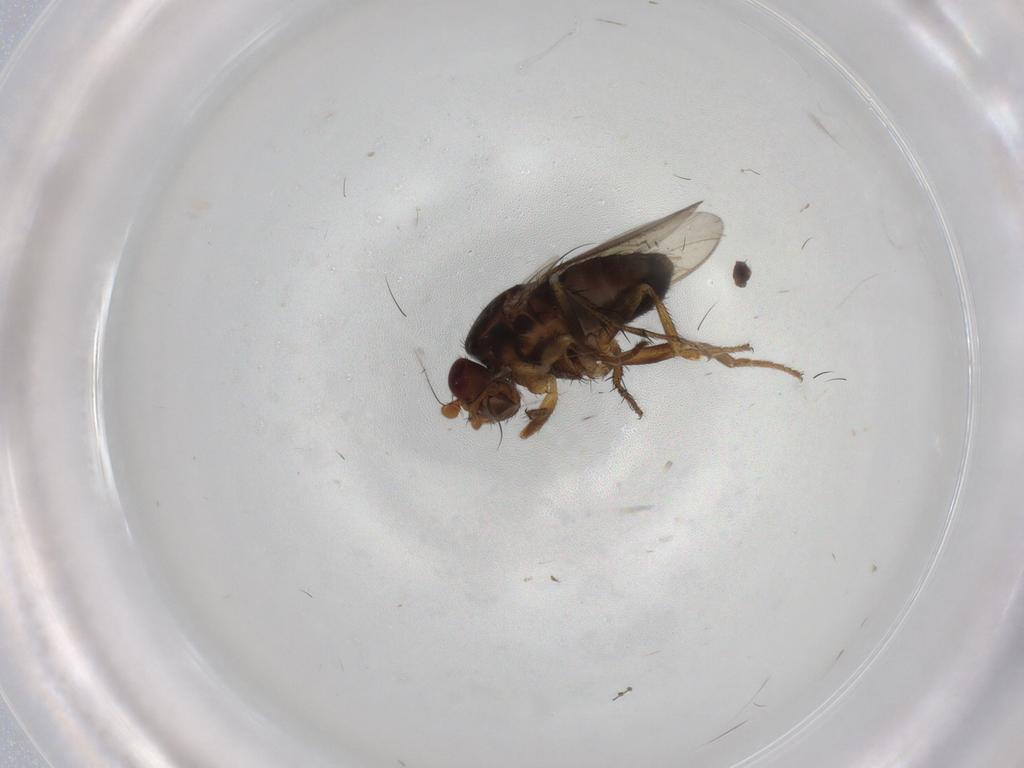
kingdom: Animalia
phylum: Arthropoda
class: Insecta
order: Diptera
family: Sphaeroceridae
